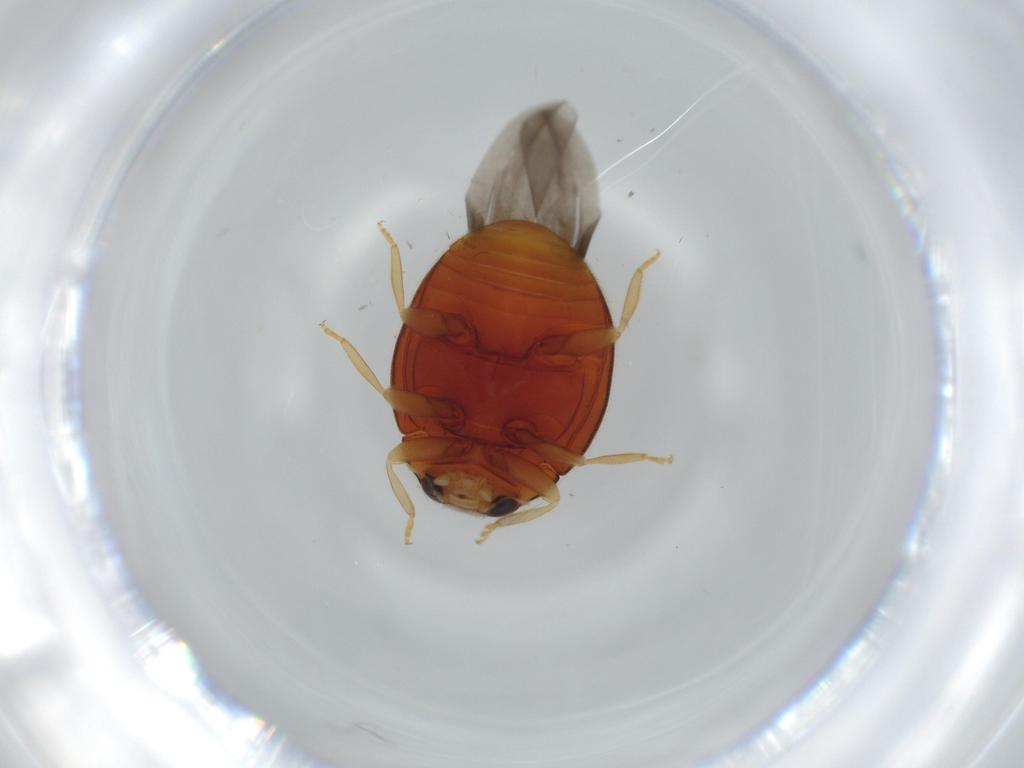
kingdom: Animalia
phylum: Arthropoda
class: Insecta
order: Coleoptera
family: Coccinellidae
